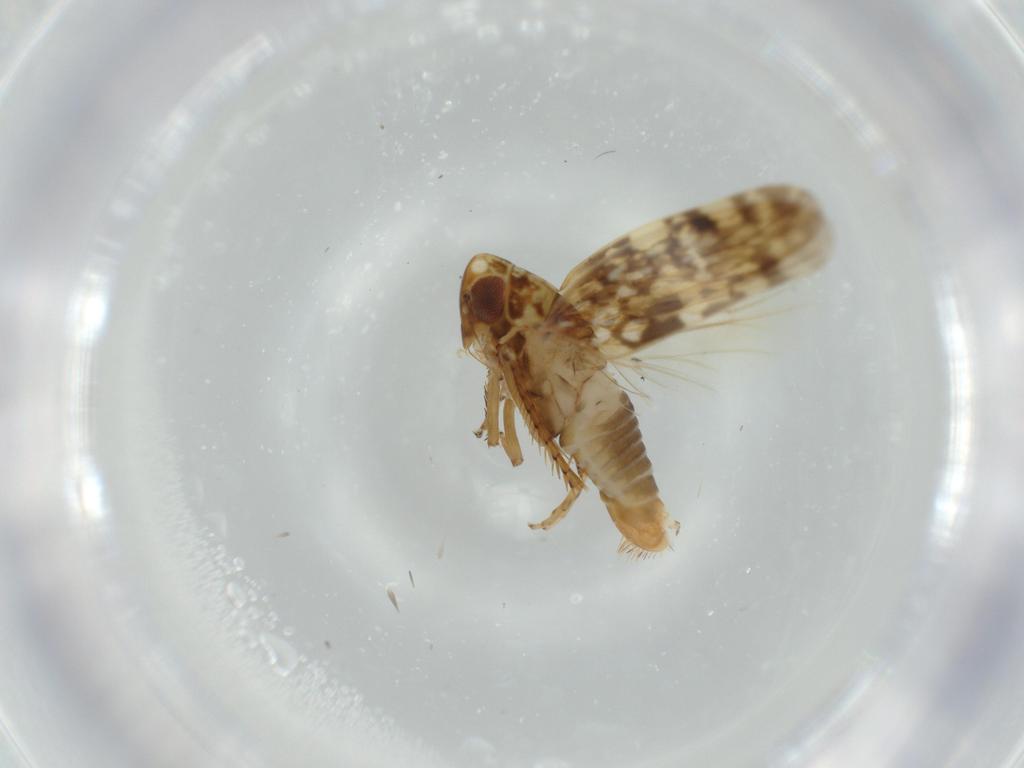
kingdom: Animalia
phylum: Arthropoda
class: Insecta
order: Hemiptera
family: Cicadellidae
